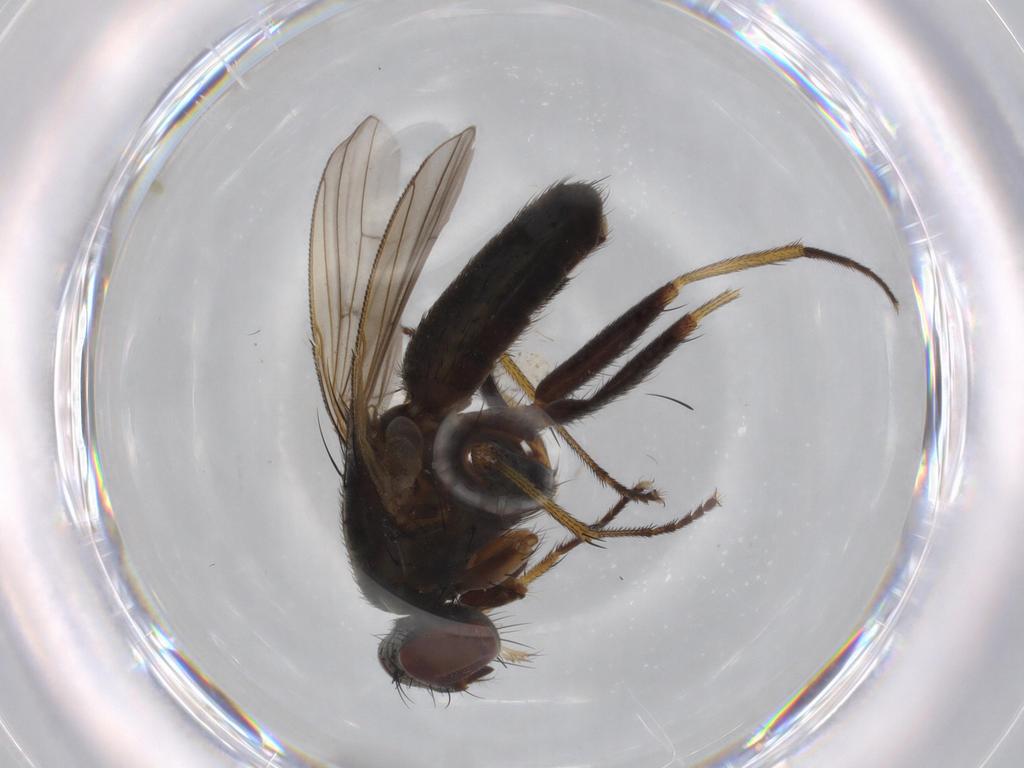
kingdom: Animalia
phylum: Arthropoda
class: Insecta
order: Diptera
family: Muscidae
